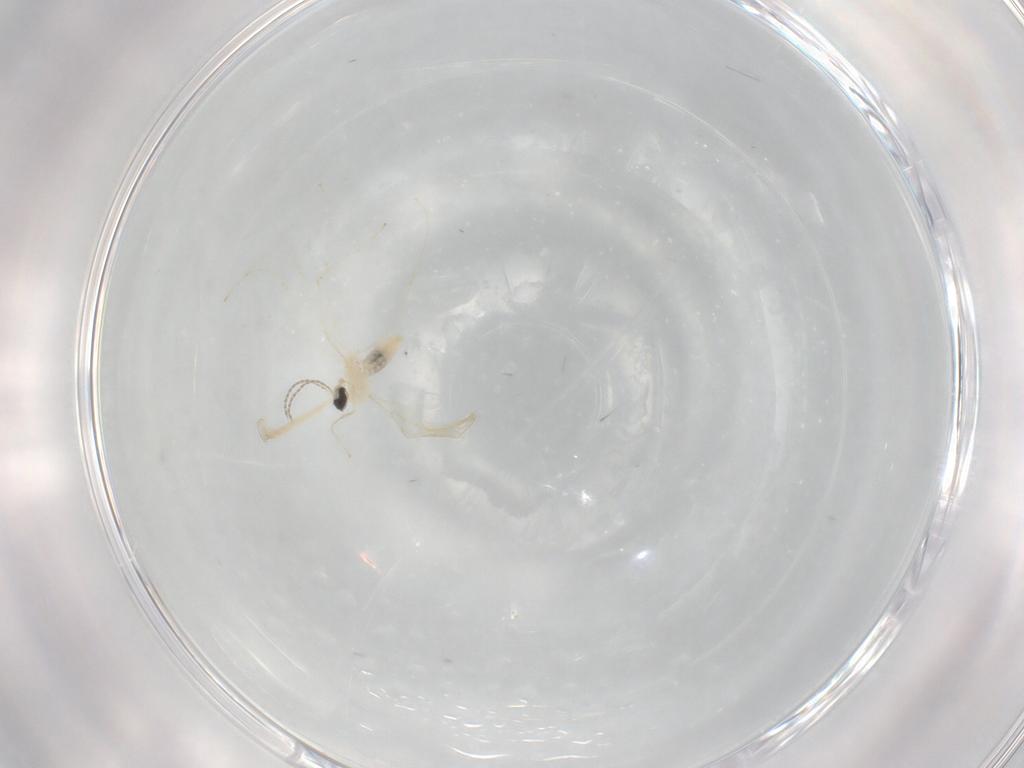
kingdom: Animalia
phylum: Arthropoda
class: Insecta
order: Diptera
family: Cecidomyiidae
